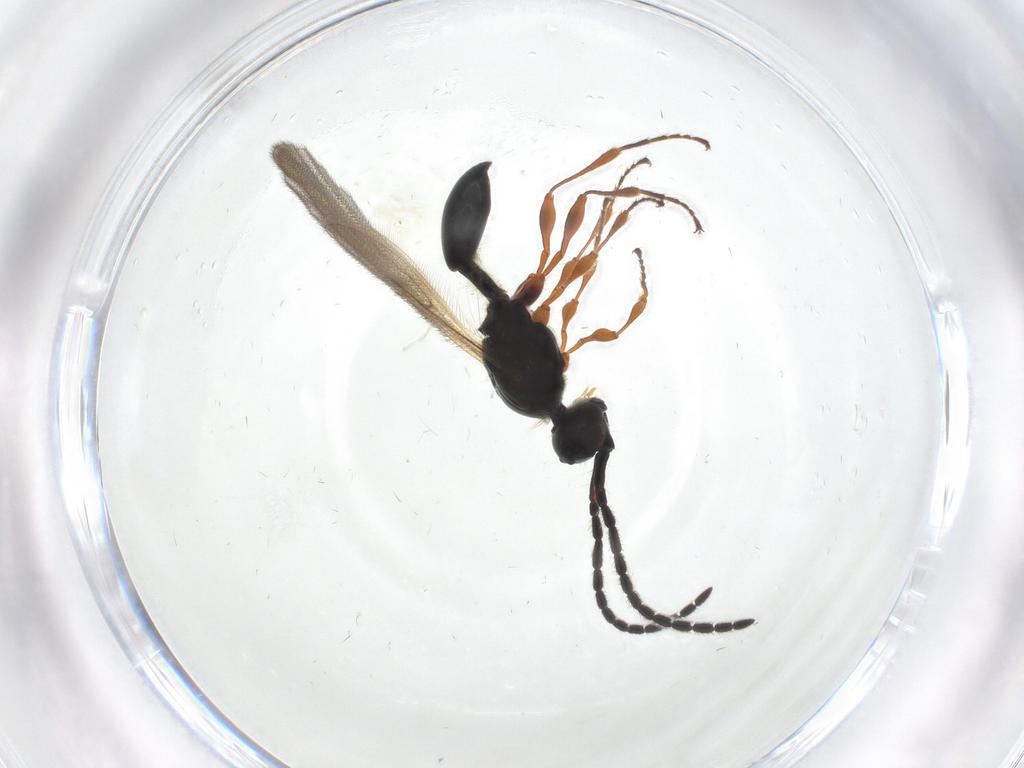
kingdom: Animalia
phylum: Arthropoda
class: Insecta
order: Hymenoptera
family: Diapriidae
